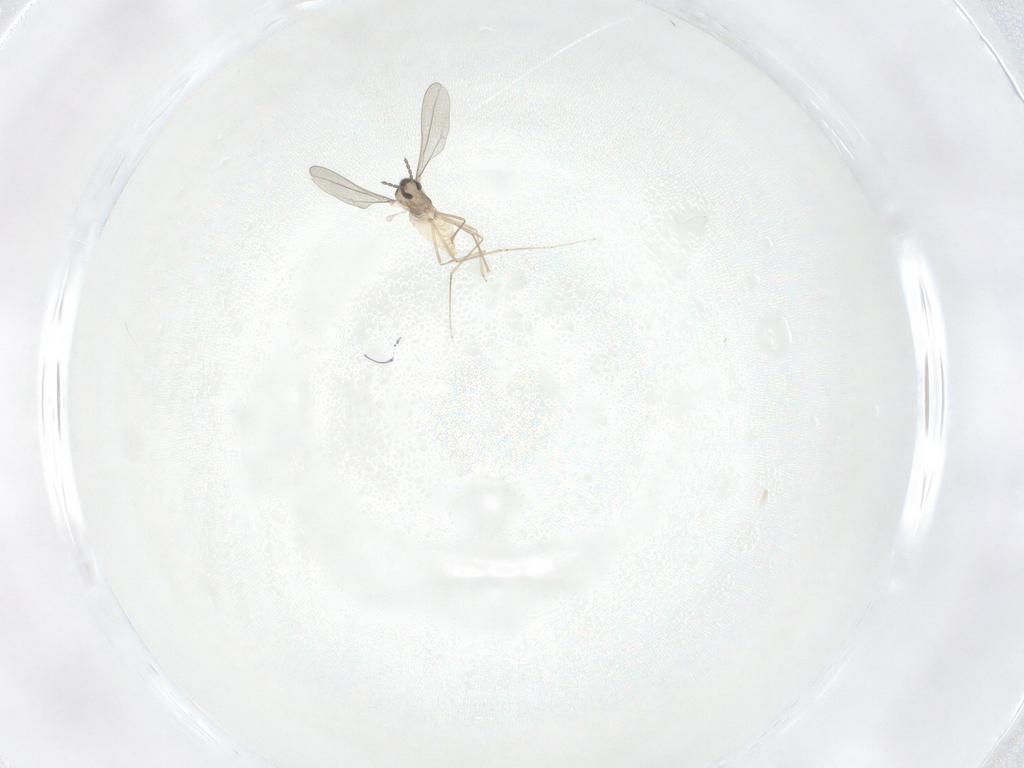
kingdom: Animalia
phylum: Arthropoda
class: Insecta
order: Diptera
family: Cecidomyiidae
